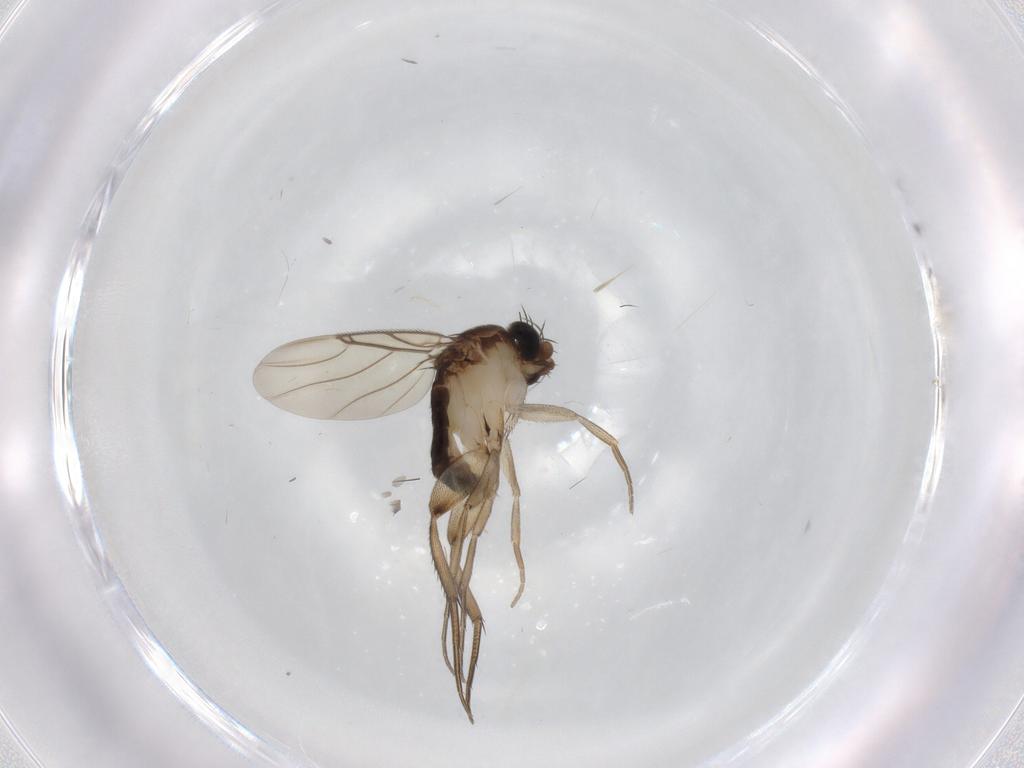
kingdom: Animalia
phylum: Arthropoda
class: Insecta
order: Diptera
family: Phoridae
